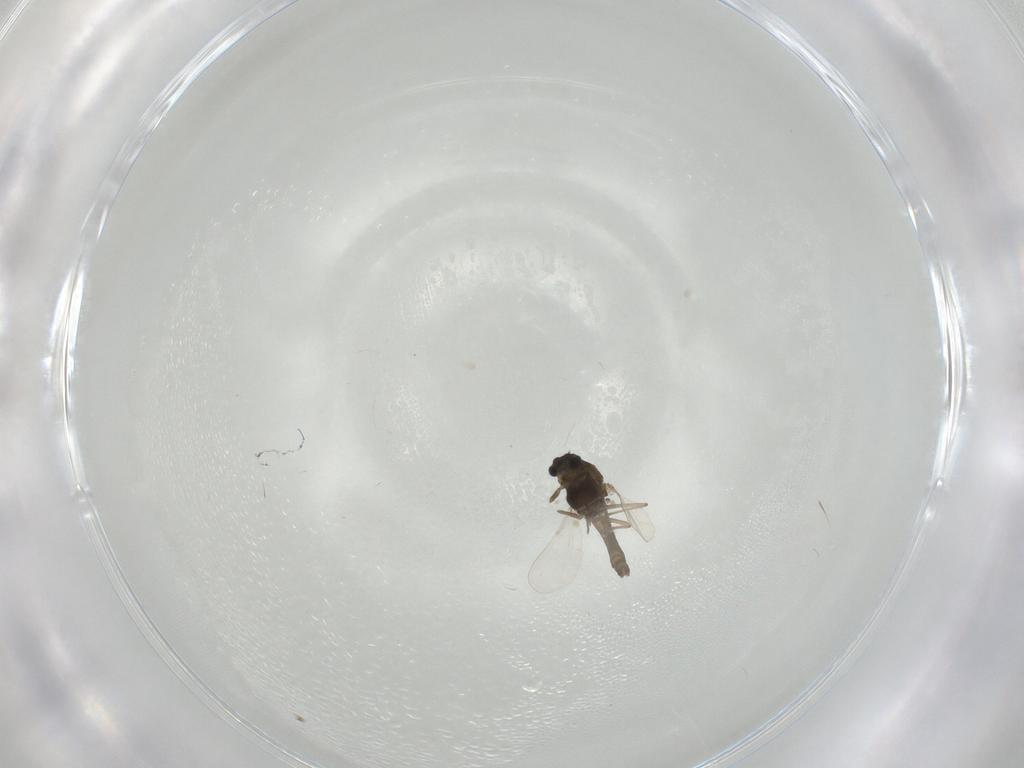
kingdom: Animalia
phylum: Arthropoda
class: Insecta
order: Diptera
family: Chironomidae
